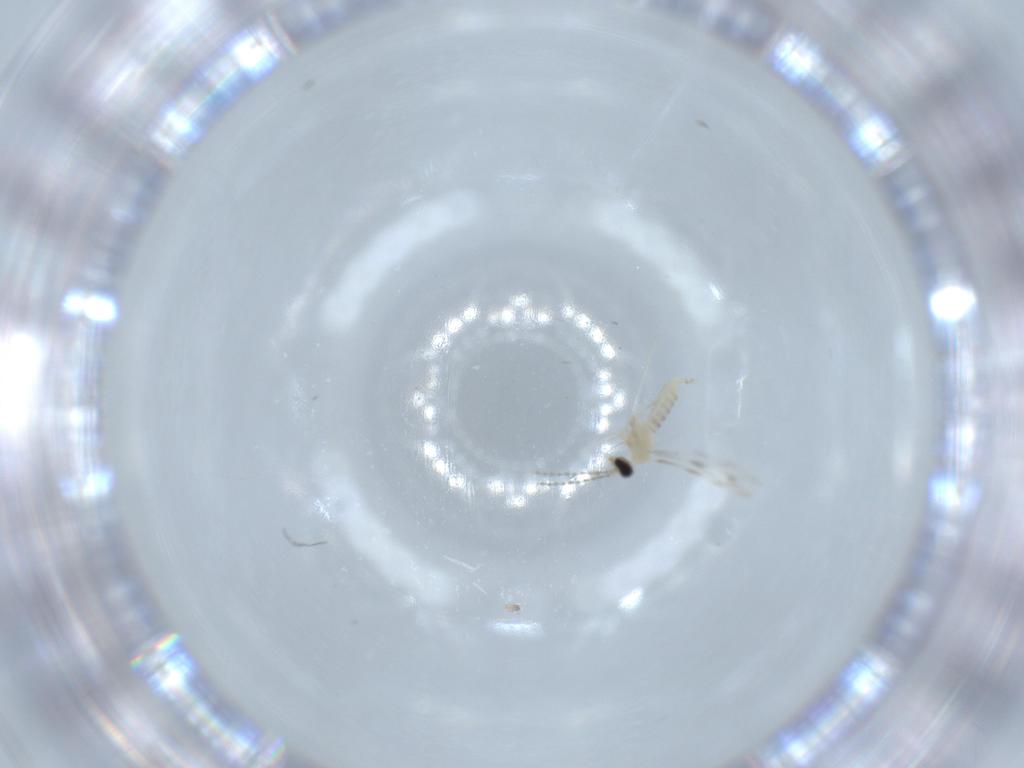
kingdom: Animalia
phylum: Arthropoda
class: Insecta
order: Diptera
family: Cecidomyiidae
